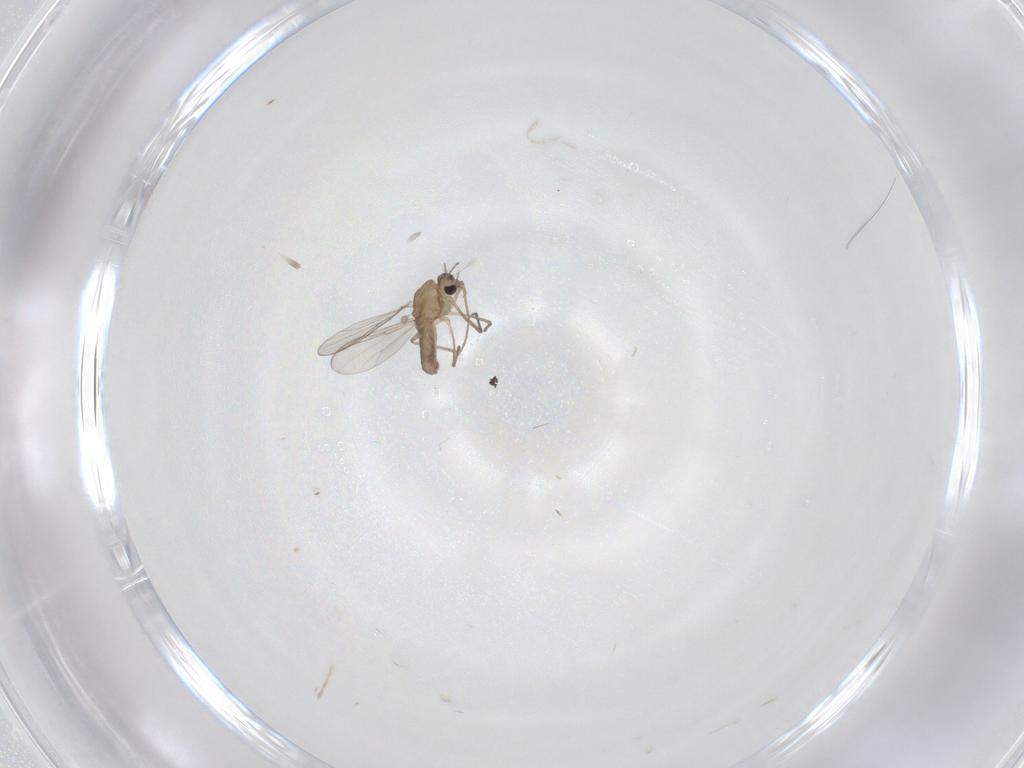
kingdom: Animalia
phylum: Arthropoda
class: Insecta
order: Diptera
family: Chironomidae
